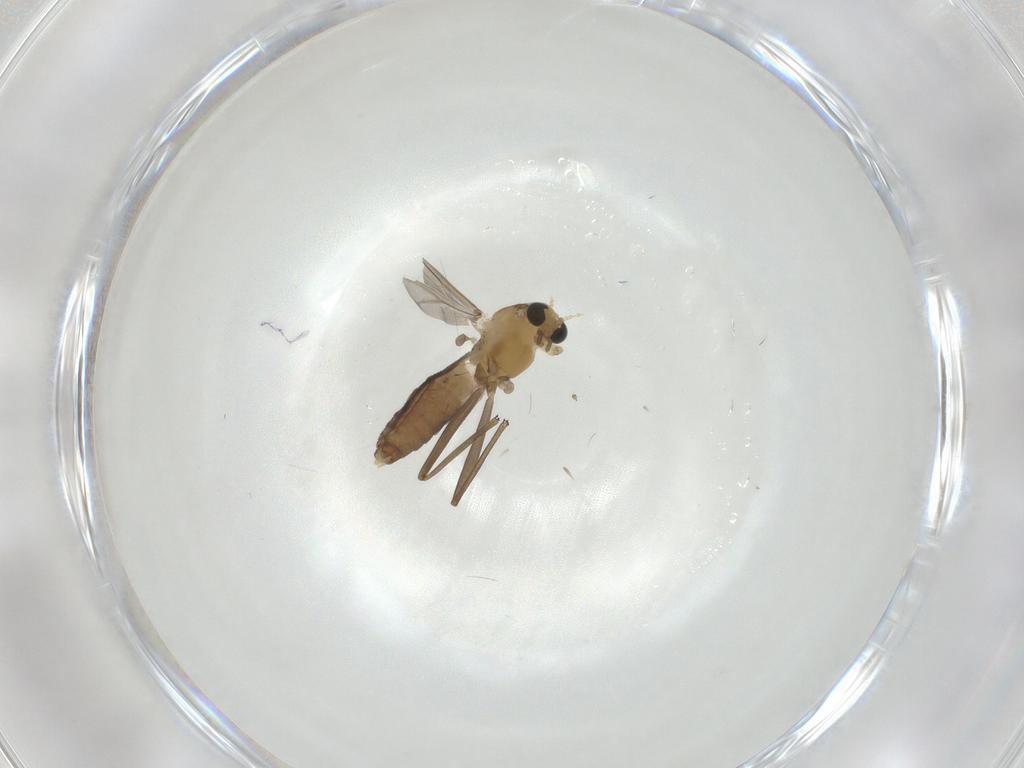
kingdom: Animalia
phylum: Arthropoda
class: Insecta
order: Diptera
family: Chironomidae
